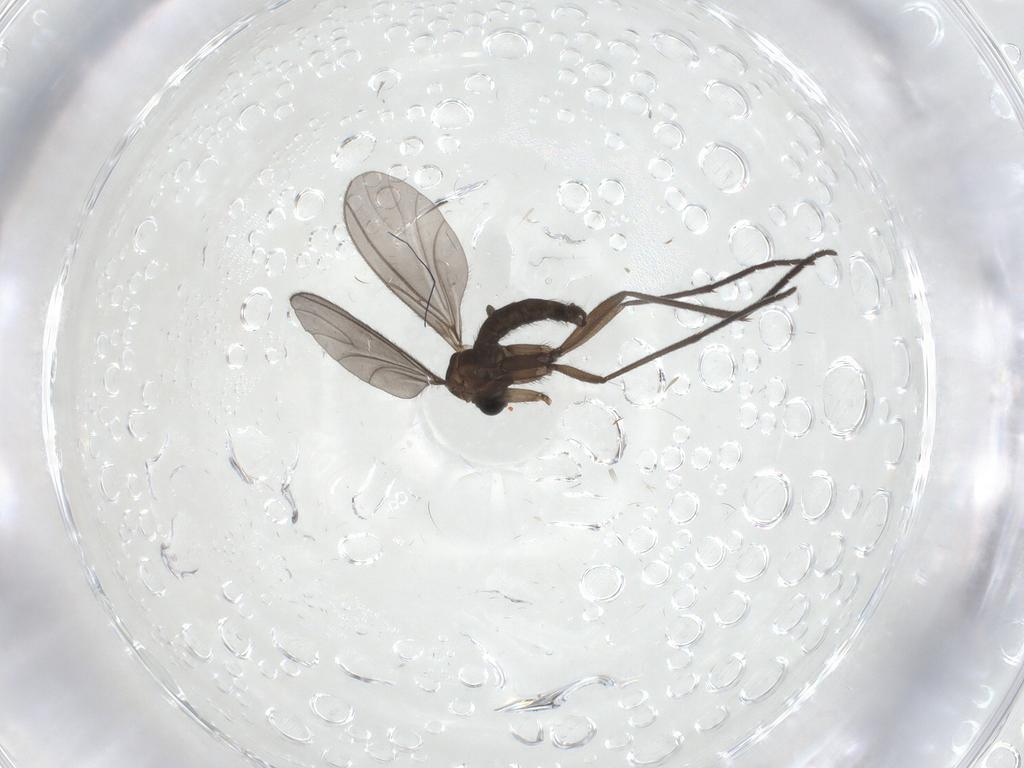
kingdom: Animalia
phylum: Arthropoda
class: Insecta
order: Diptera
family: Sciaridae
